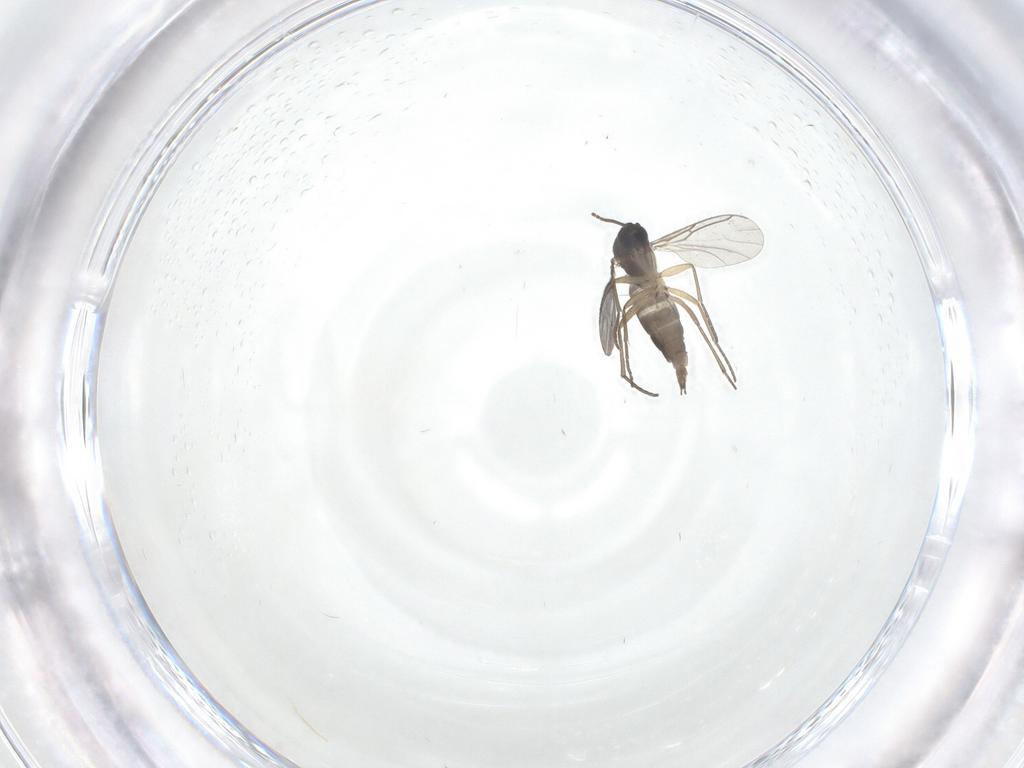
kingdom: Animalia
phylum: Arthropoda
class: Insecta
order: Diptera
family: Sciaridae
